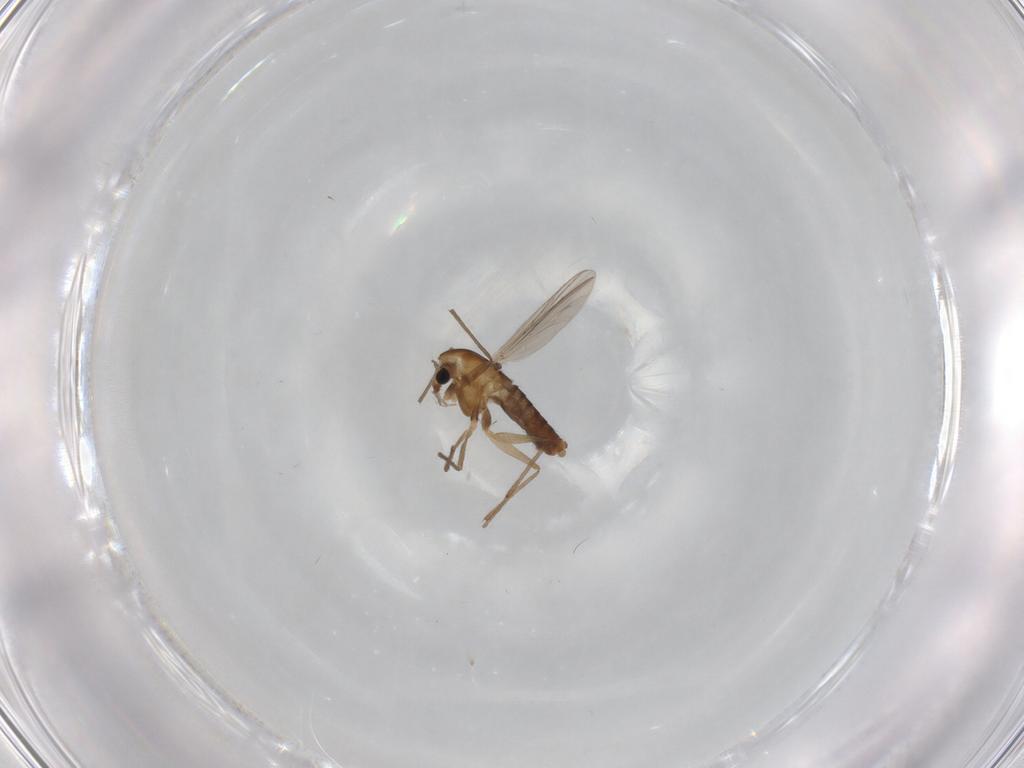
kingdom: Animalia
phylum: Arthropoda
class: Insecta
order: Diptera
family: Chironomidae
